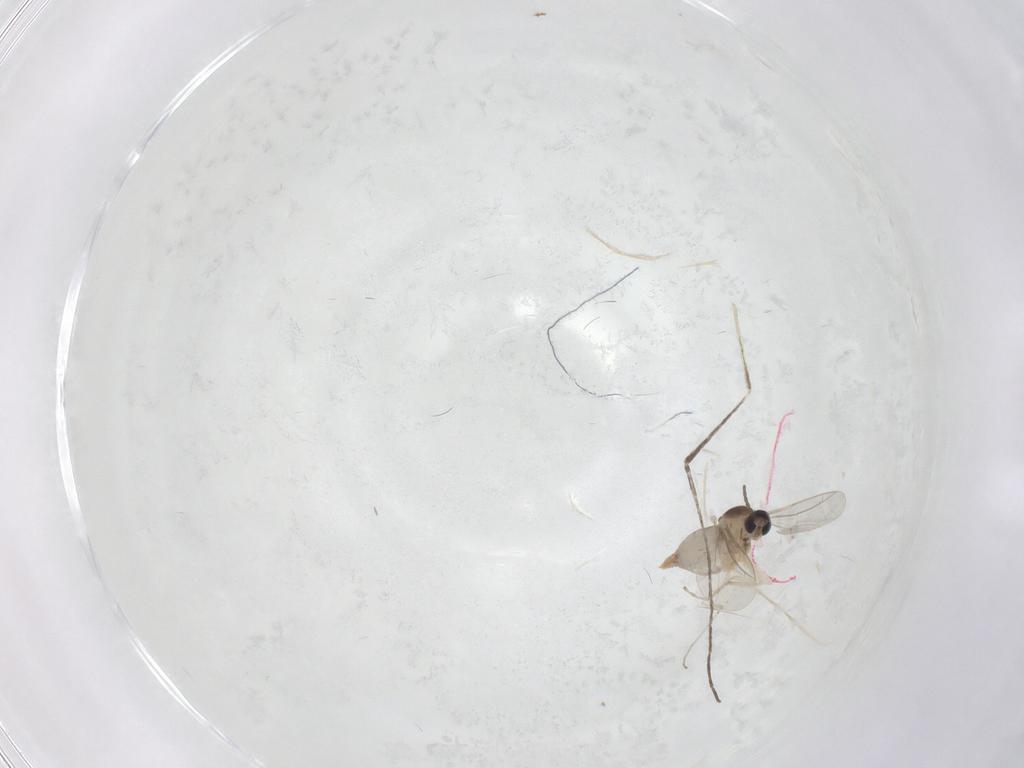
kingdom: Animalia
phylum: Arthropoda
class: Insecta
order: Diptera
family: Cecidomyiidae
